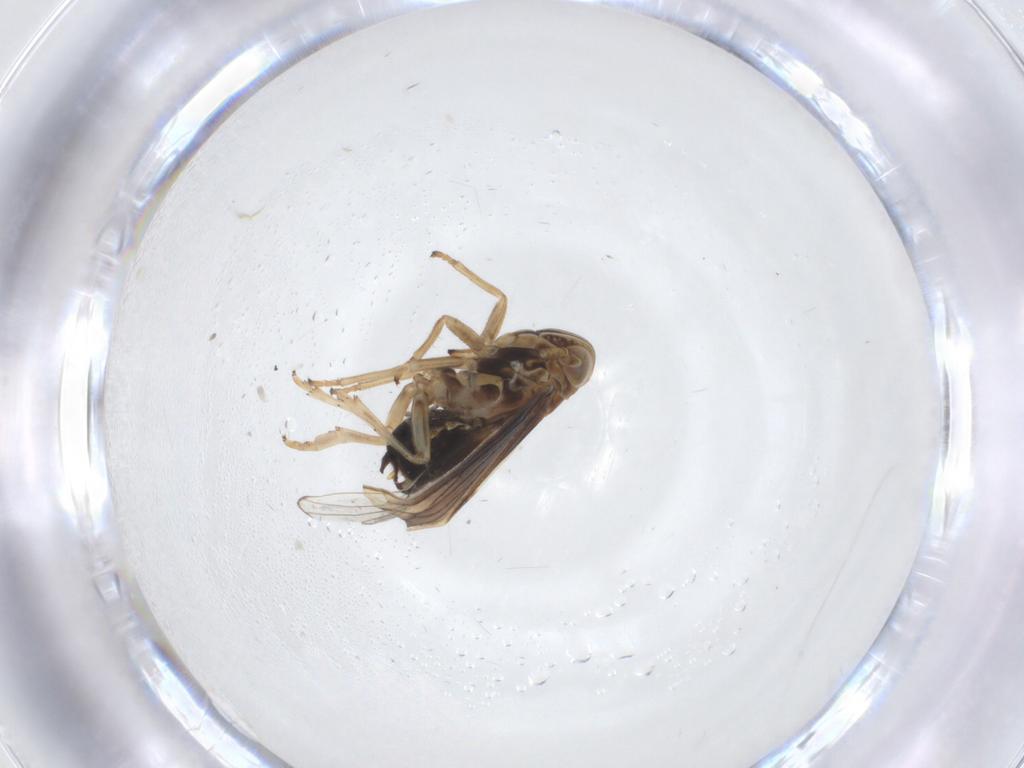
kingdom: Animalia
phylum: Arthropoda
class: Insecta
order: Hemiptera
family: Delphacidae
